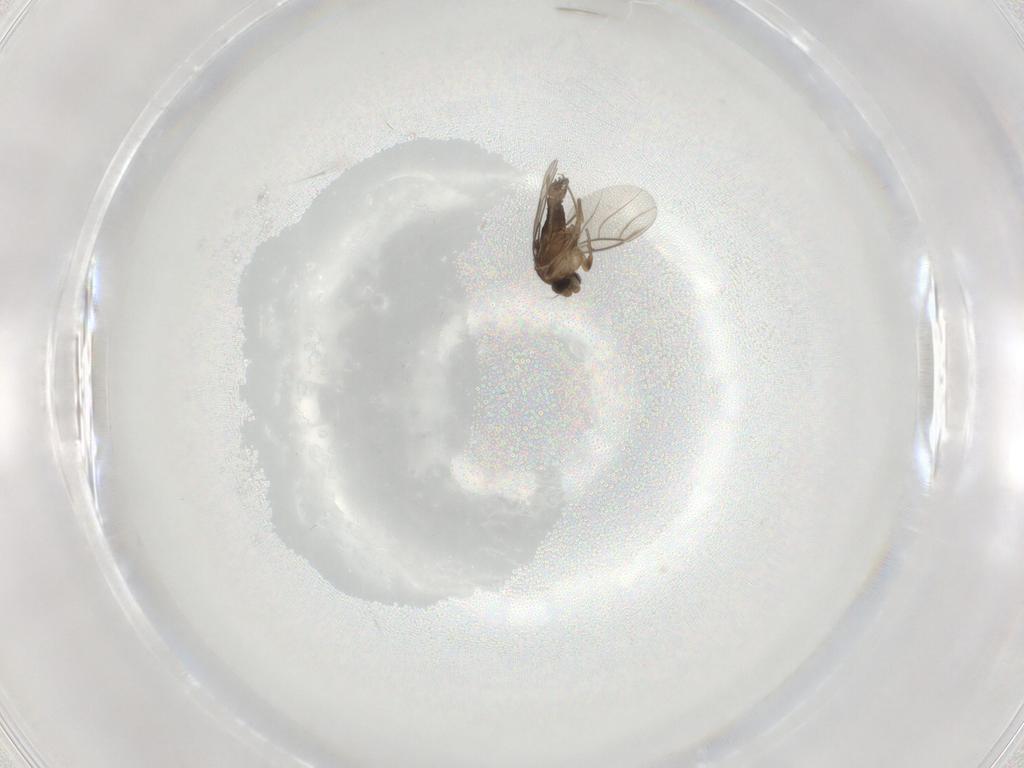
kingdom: Animalia
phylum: Arthropoda
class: Insecta
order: Diptera
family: Phoridae
